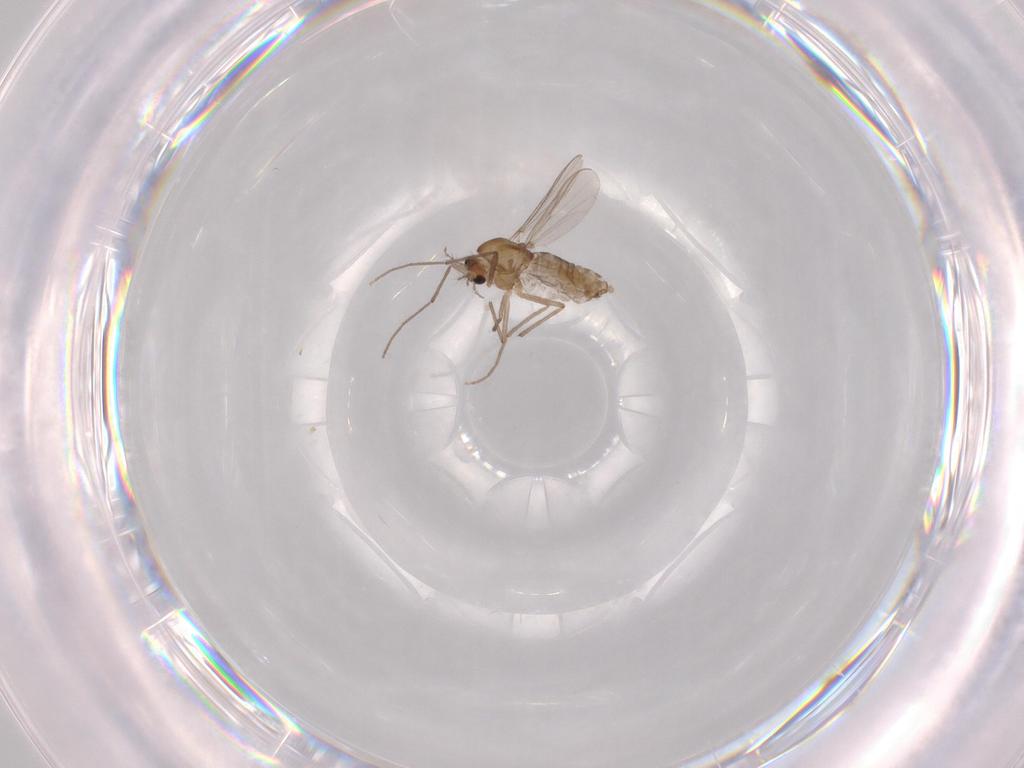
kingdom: Animalia
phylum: Arthropoda
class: Insecta
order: Diptera
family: Chironomidae
